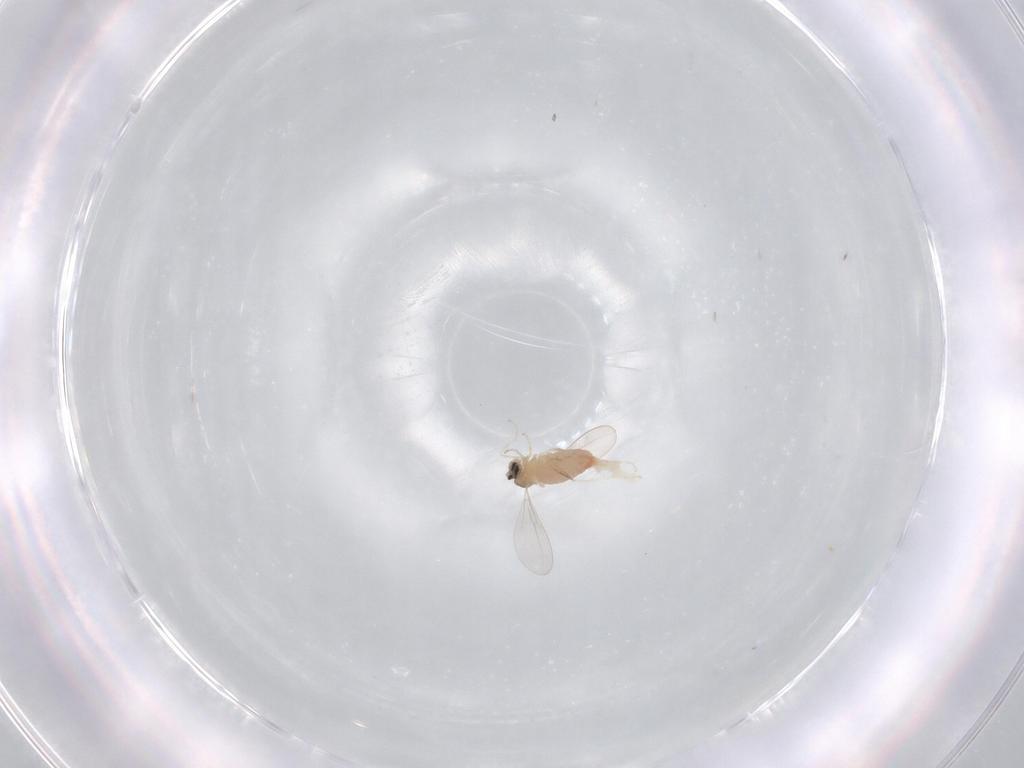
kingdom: Animalia
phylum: Arthropoda
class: Insecta
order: Diptera
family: Cecidomyiidae
